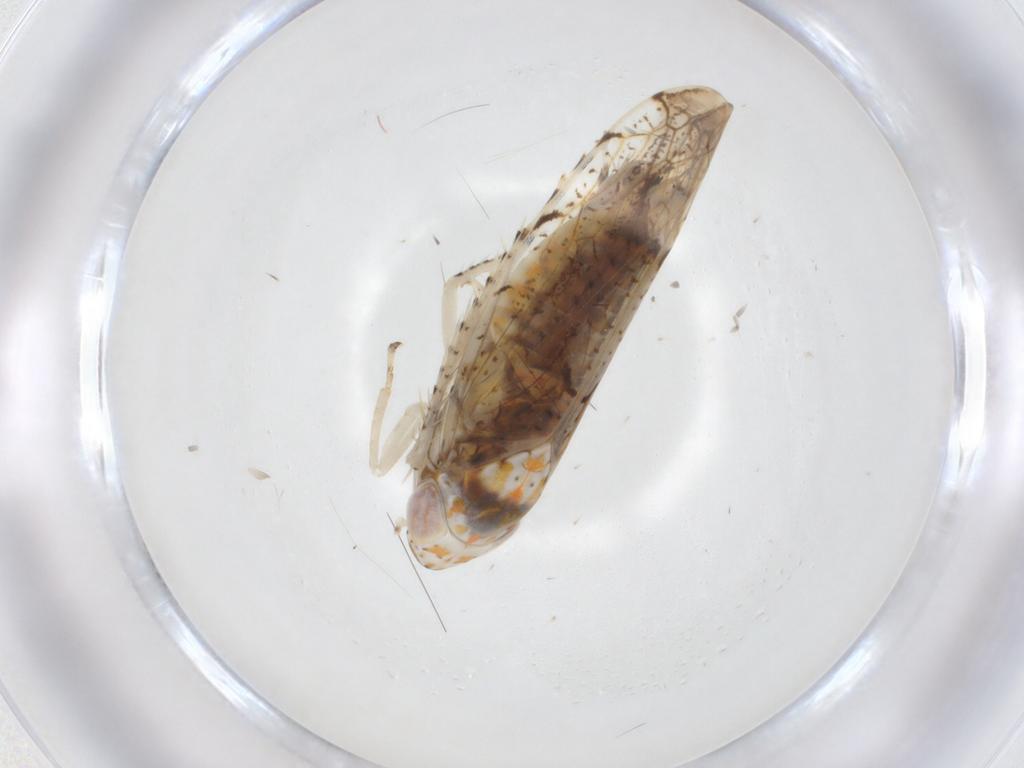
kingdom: Animalia
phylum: Arthropoda
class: Insecta
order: Hemiptera
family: Cicadellidae
